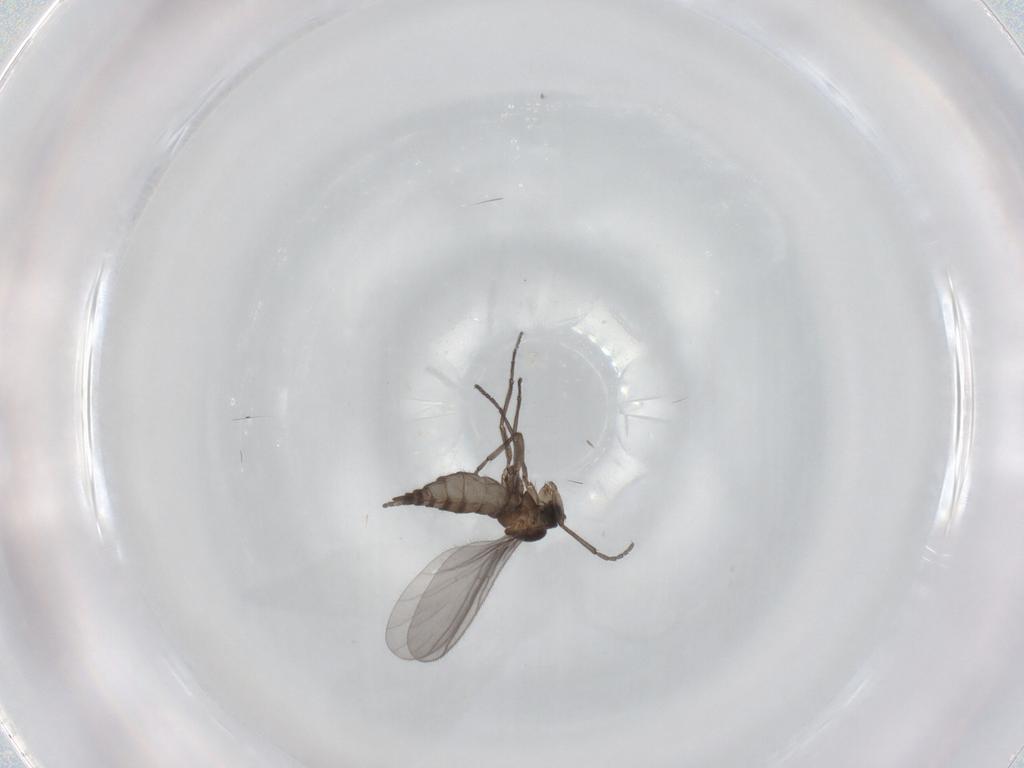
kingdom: Animalia
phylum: Arthropoda
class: Insecta
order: Diptera
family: Sciaridae
